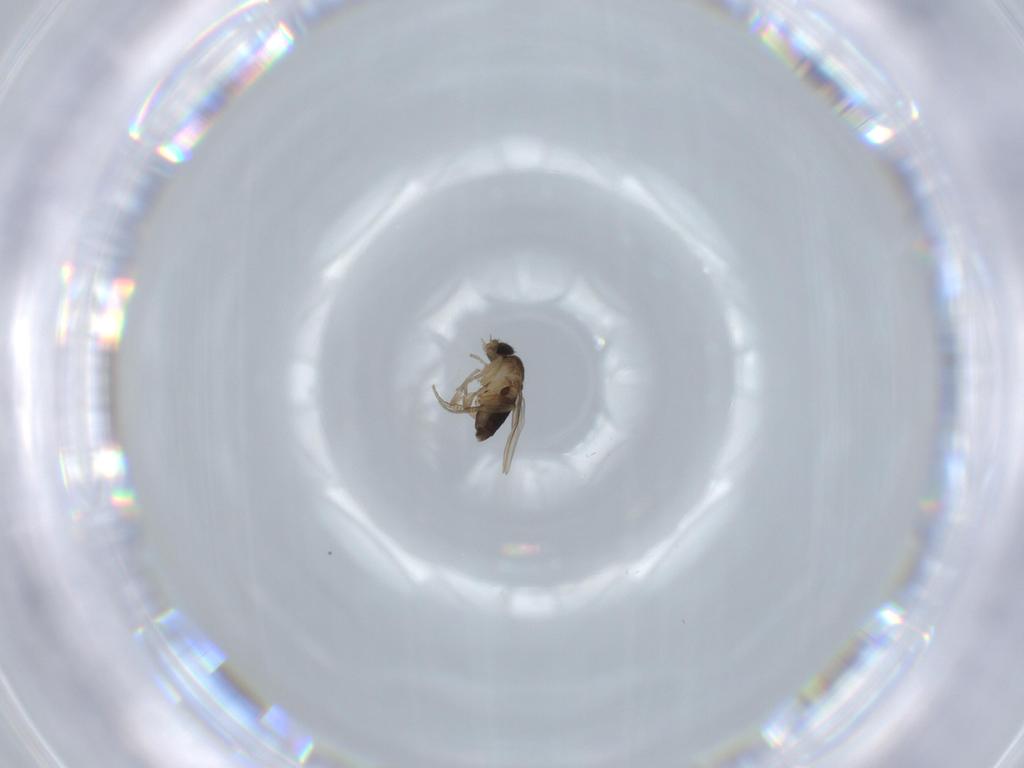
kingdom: Animalia
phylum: Arthropoda
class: Insecta
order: Diptera
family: Phoridae
